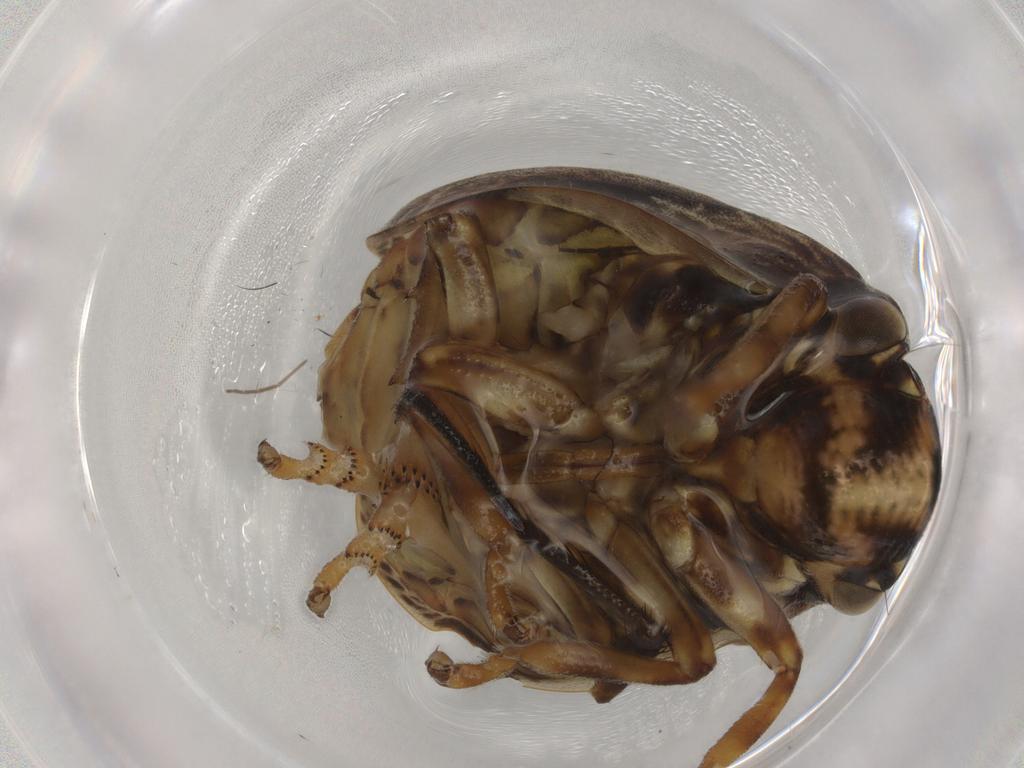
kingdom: Animalia
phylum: Arthropoda
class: Insecta
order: Hemiptera
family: Aphrophoridae
